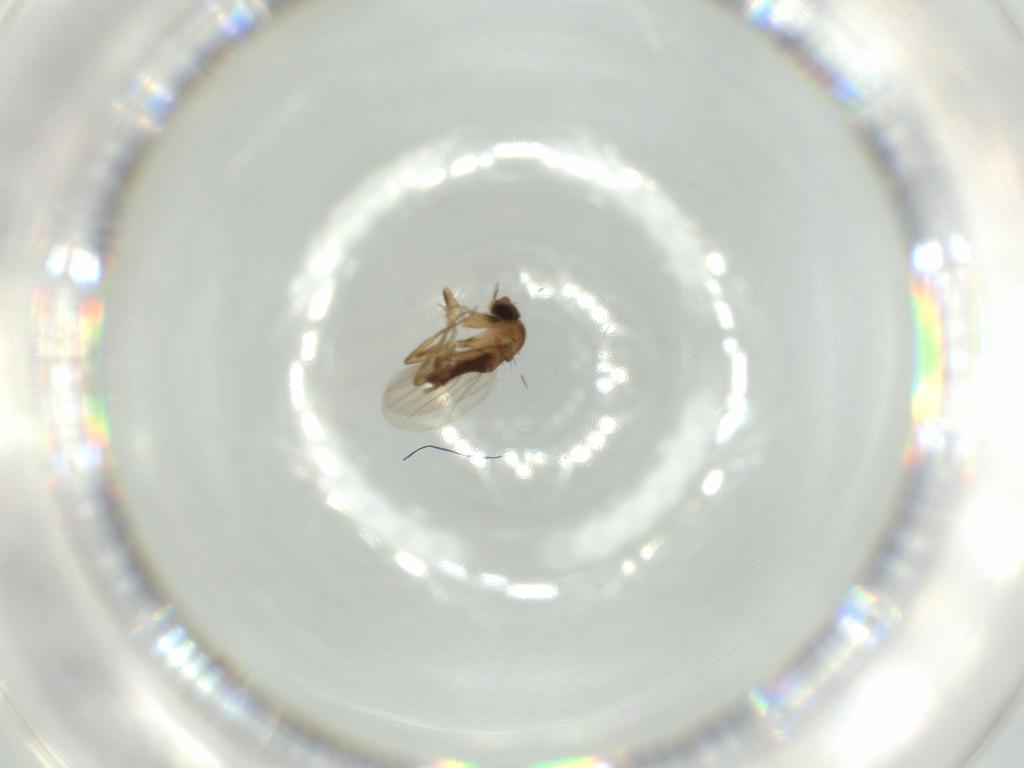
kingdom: Animalia
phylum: Arthropoda
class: Insecta
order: Diptera
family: Phoridae
